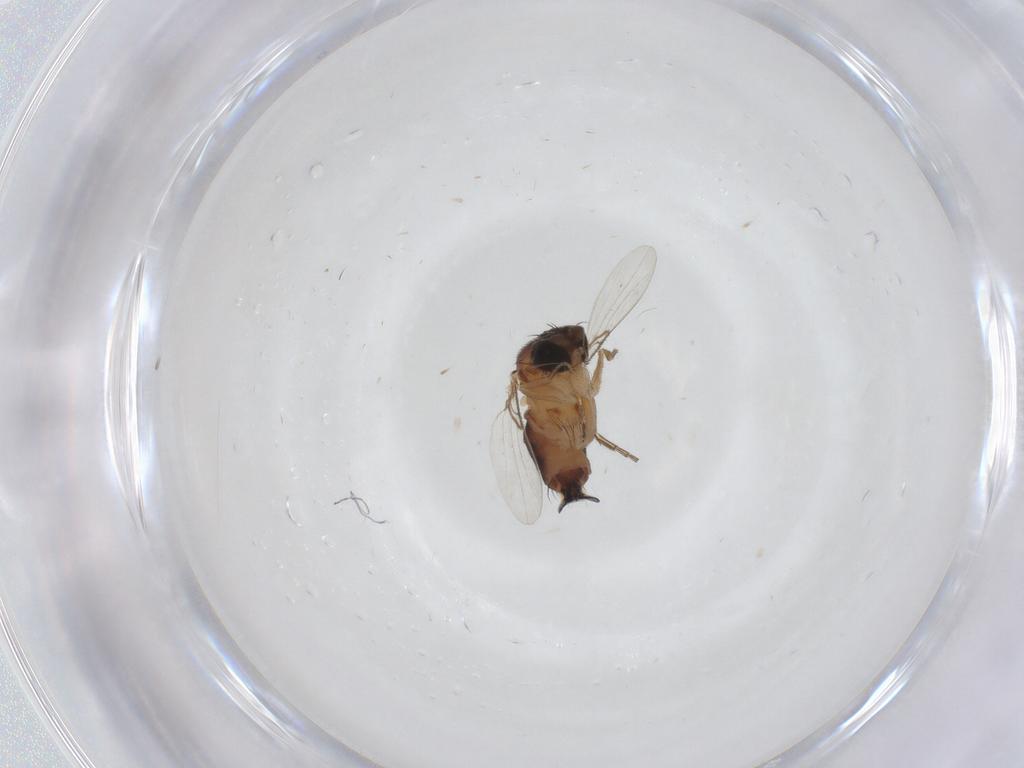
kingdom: Animalia
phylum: Arthropoda
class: Insecta
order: Diptera
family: Phoridae
